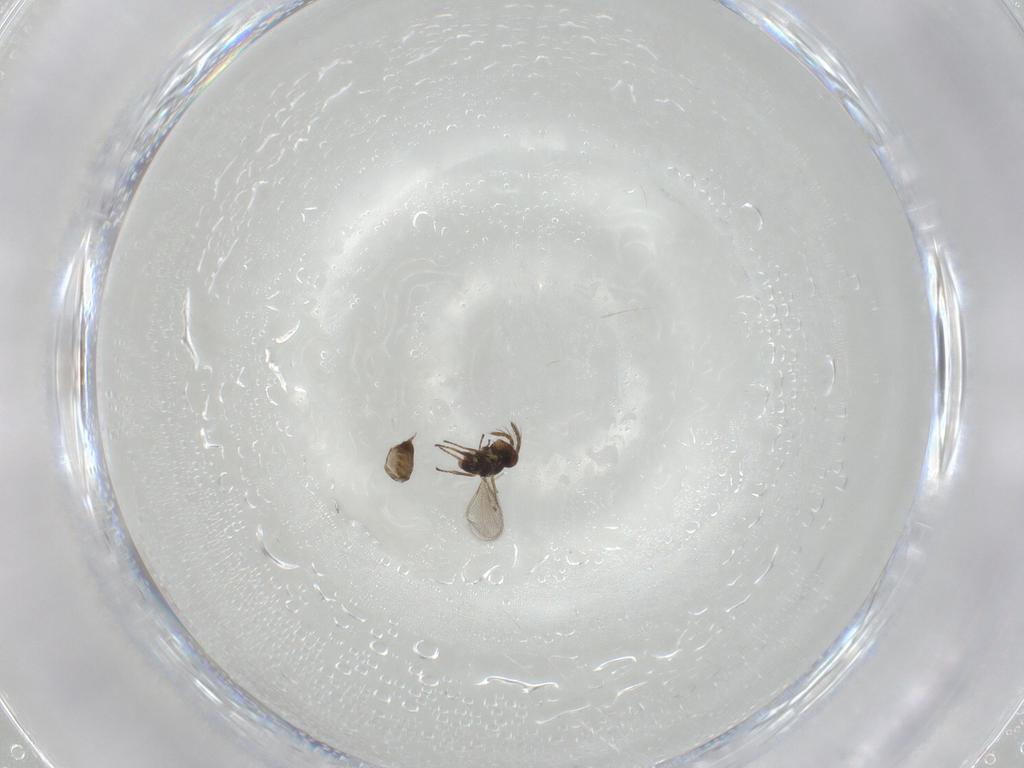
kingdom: Animalia
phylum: Arthropoda
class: Insecta
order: Hymenoptera
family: Eulophidae
